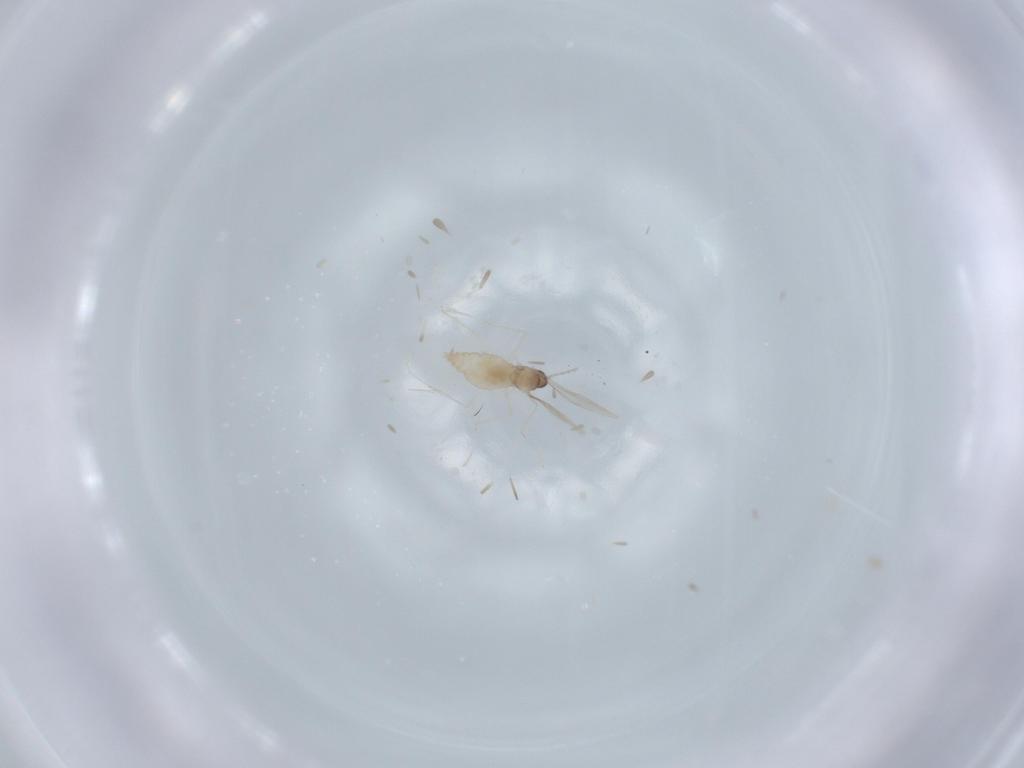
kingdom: Animalia
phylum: Arthropoda
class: Insecta
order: Diptera
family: Cecidomyiidae
